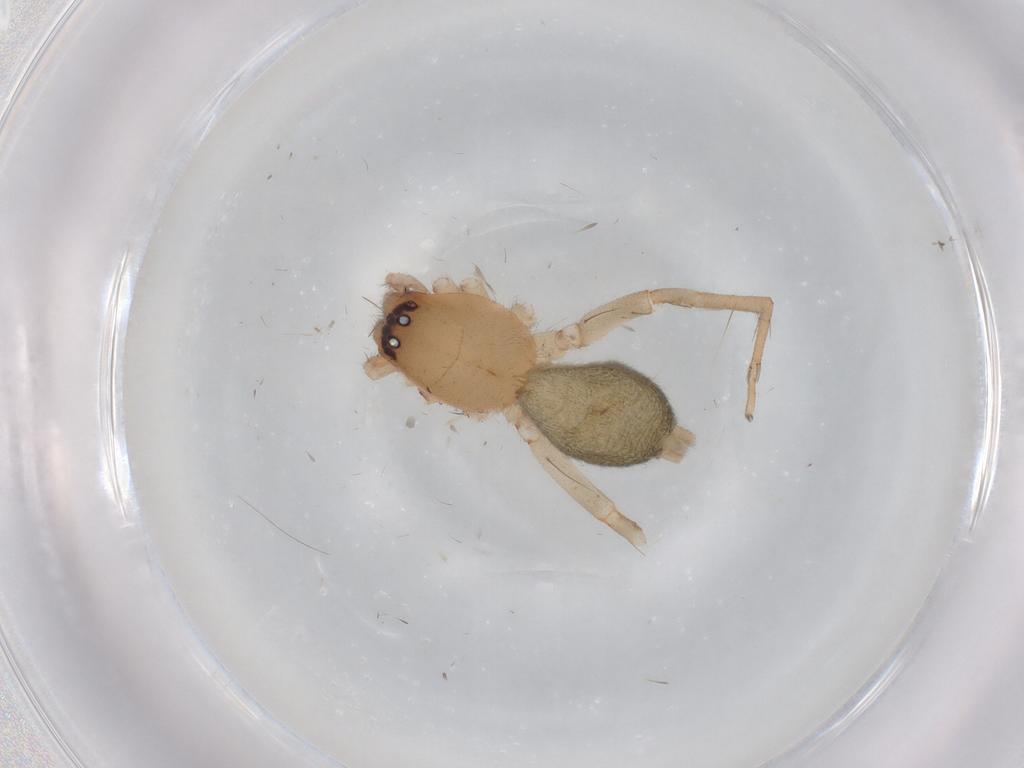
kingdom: Animalia
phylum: Arthropoda
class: Arachnida
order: Araneae
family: Clubionidae
